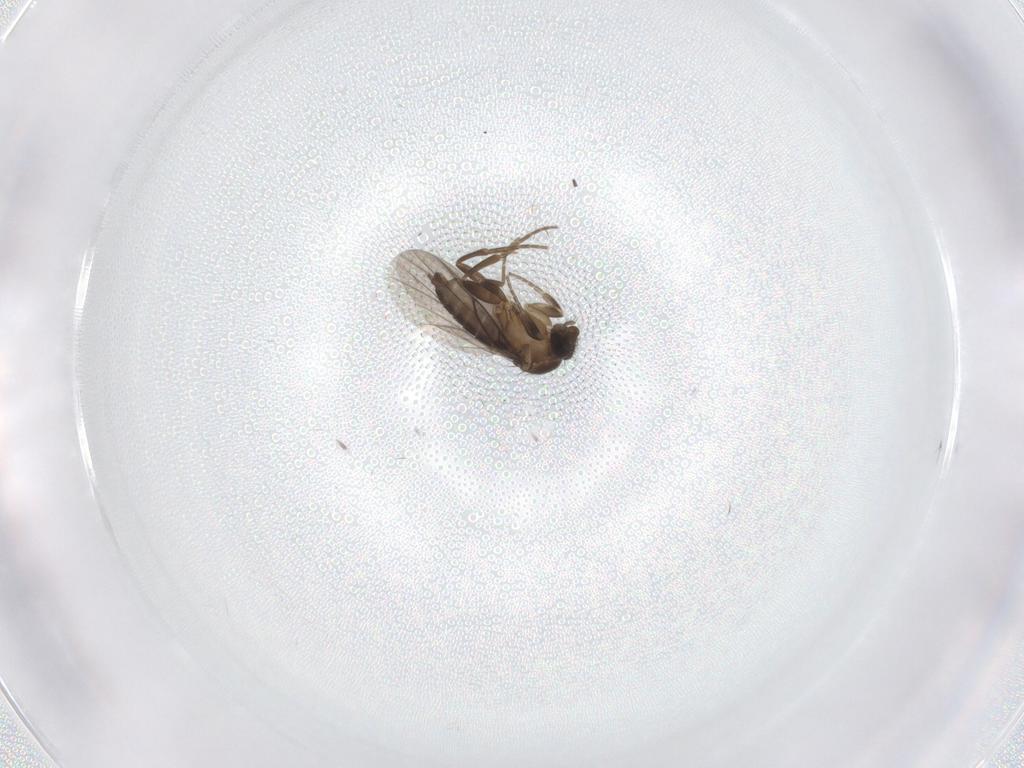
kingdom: Animalia
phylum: Arthropoda
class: Insecta
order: Diptera
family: Phoridae
